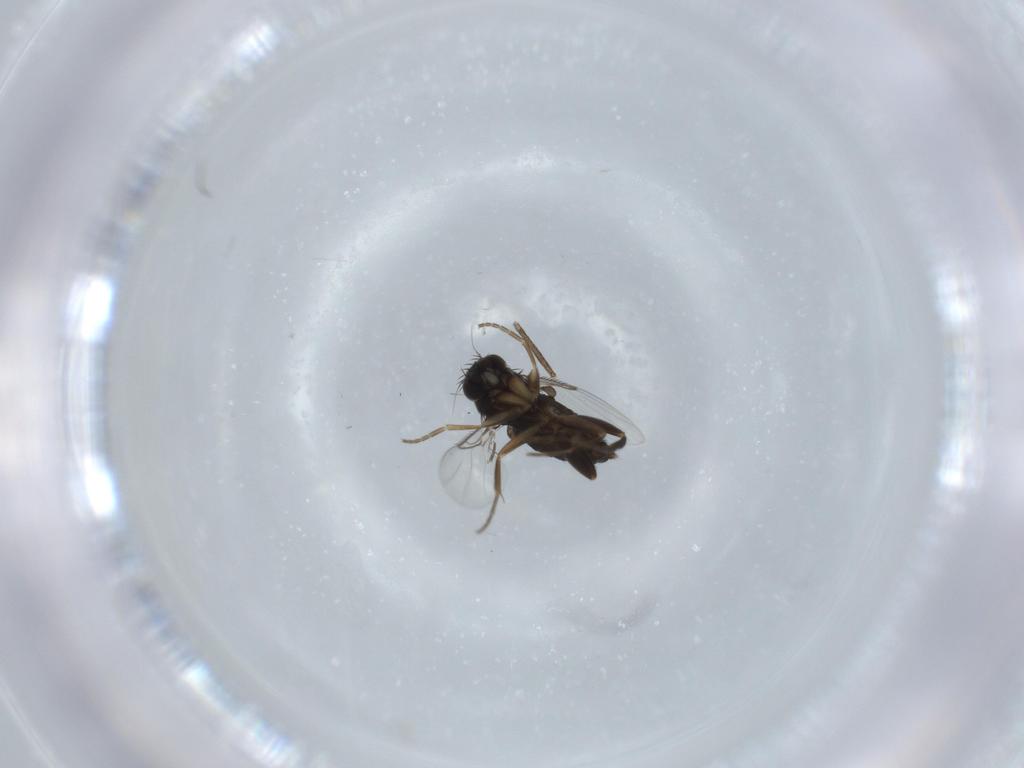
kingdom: Animalia
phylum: Arthropoda
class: Insecta
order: Diptera
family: Phoridae
